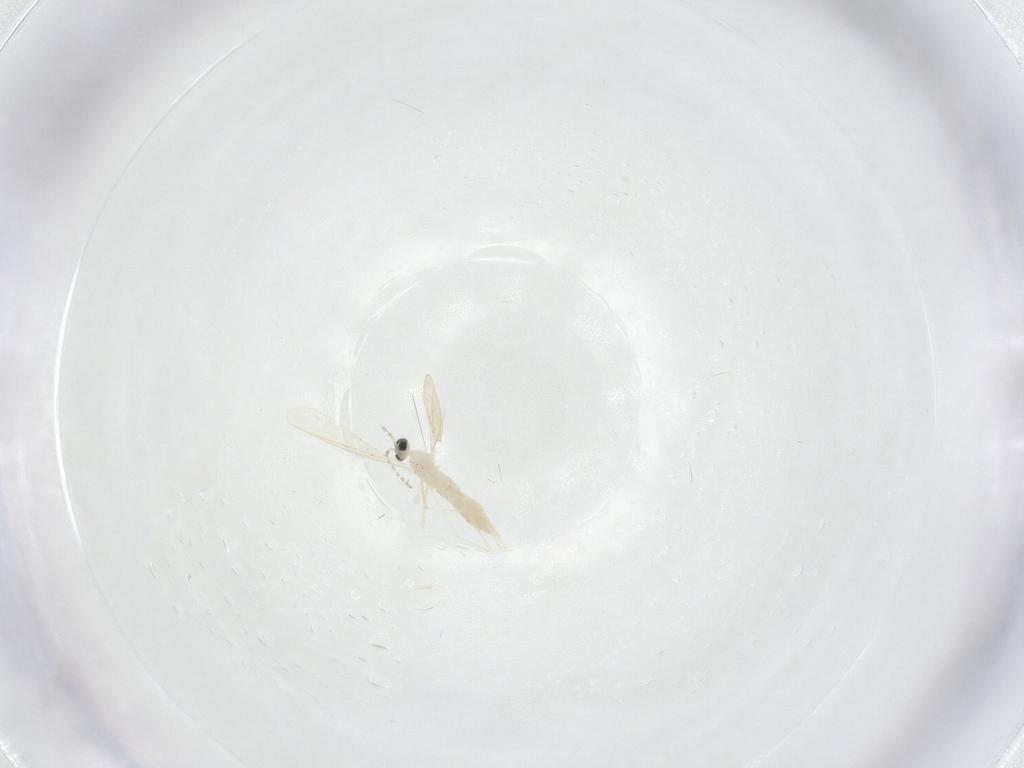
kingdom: Animalia
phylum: Arthropoda
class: Insecta
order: Diptera
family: Cecidomyiidae
